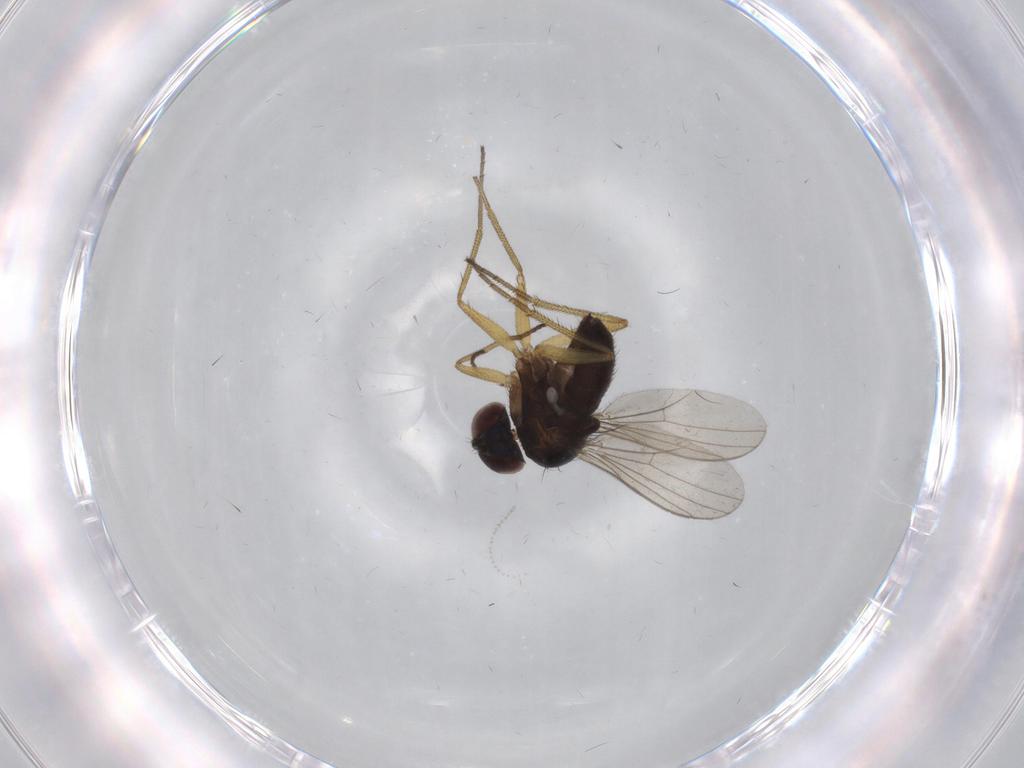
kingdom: Animalia
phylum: Arthropoda
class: Insecta
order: Diptera
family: Dolichopodidae
